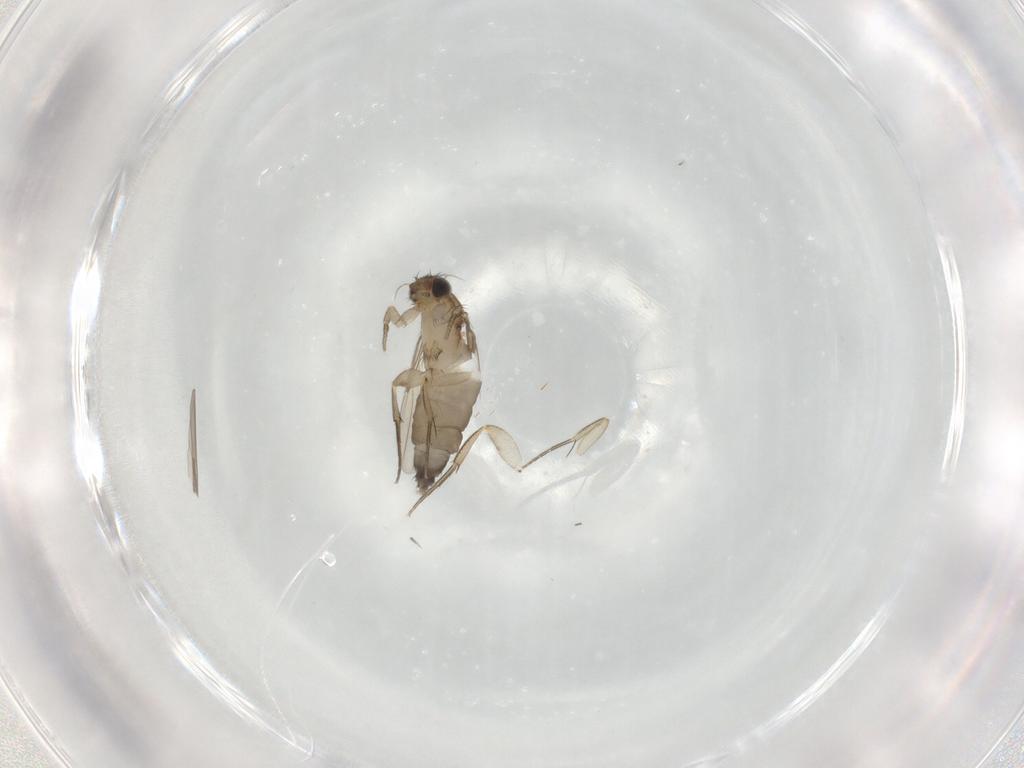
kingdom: Animalia
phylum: Arthropoda
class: Insecta
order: Diptera
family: Phoridae
